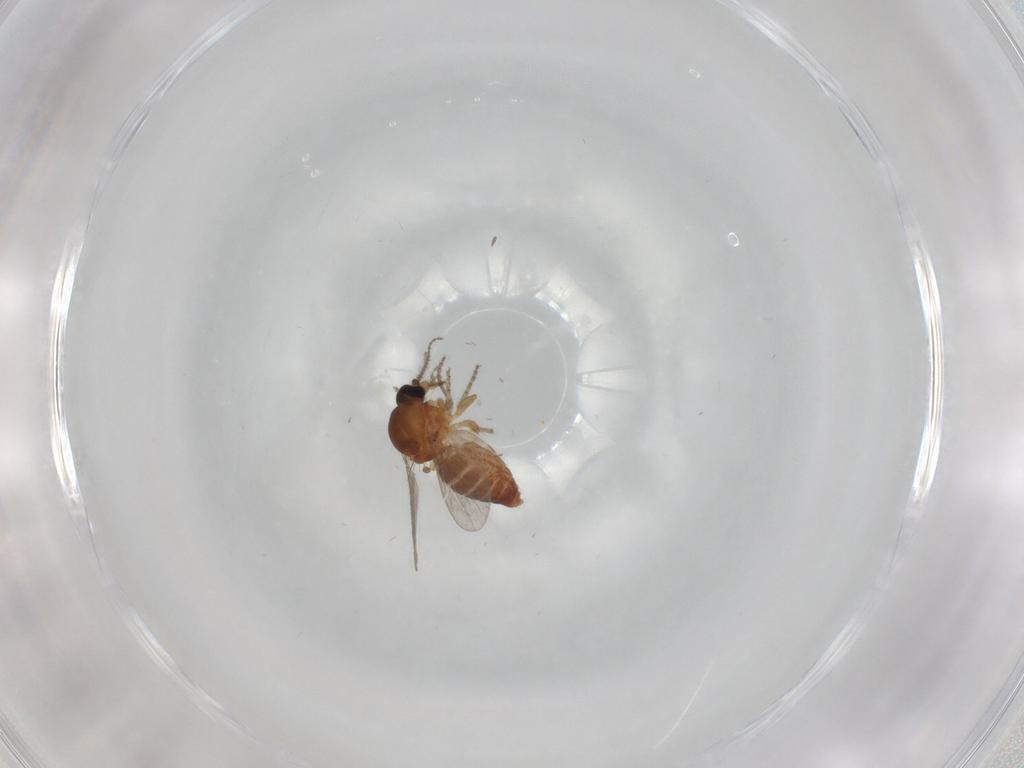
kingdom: Animalia
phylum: Arthropoda
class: Insecta
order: Diptera
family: Ceratopogonidae
